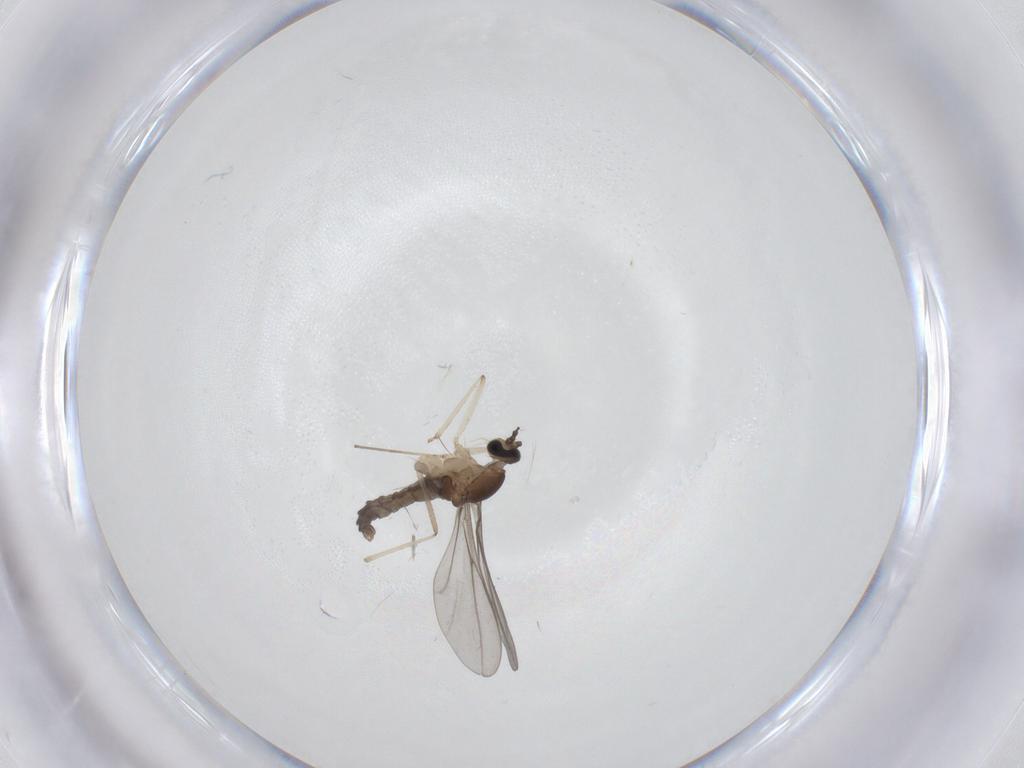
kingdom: Animalia
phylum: Arthropoda
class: Insecta
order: Diptera
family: Cecidomyiidae
